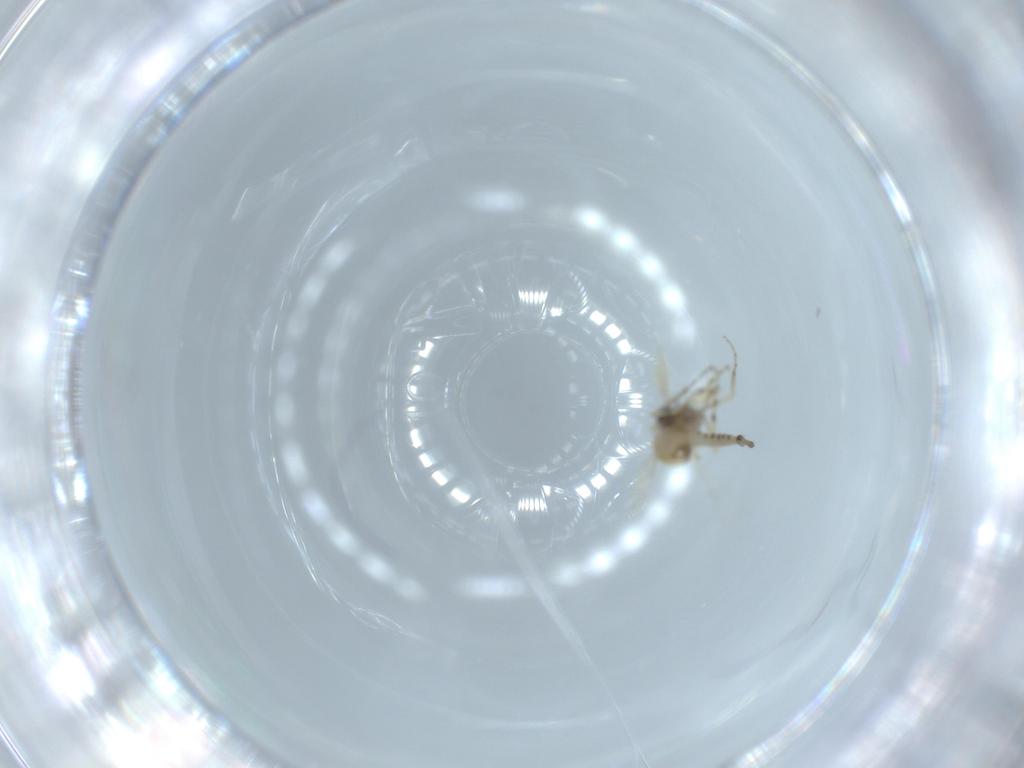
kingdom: Animalia
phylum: Arthropoda
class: Insecta
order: Diptera
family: Ceratopogonidae
